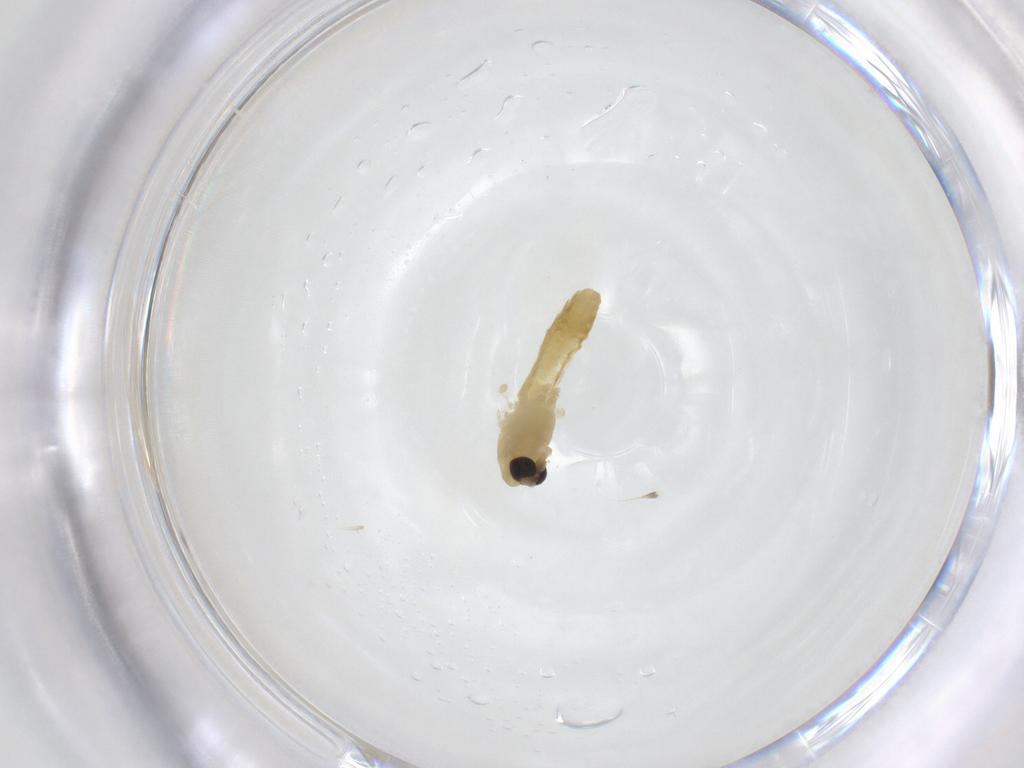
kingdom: Animalia
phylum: Arthropoda
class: Insecta
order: Diptera
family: Chironomidae
